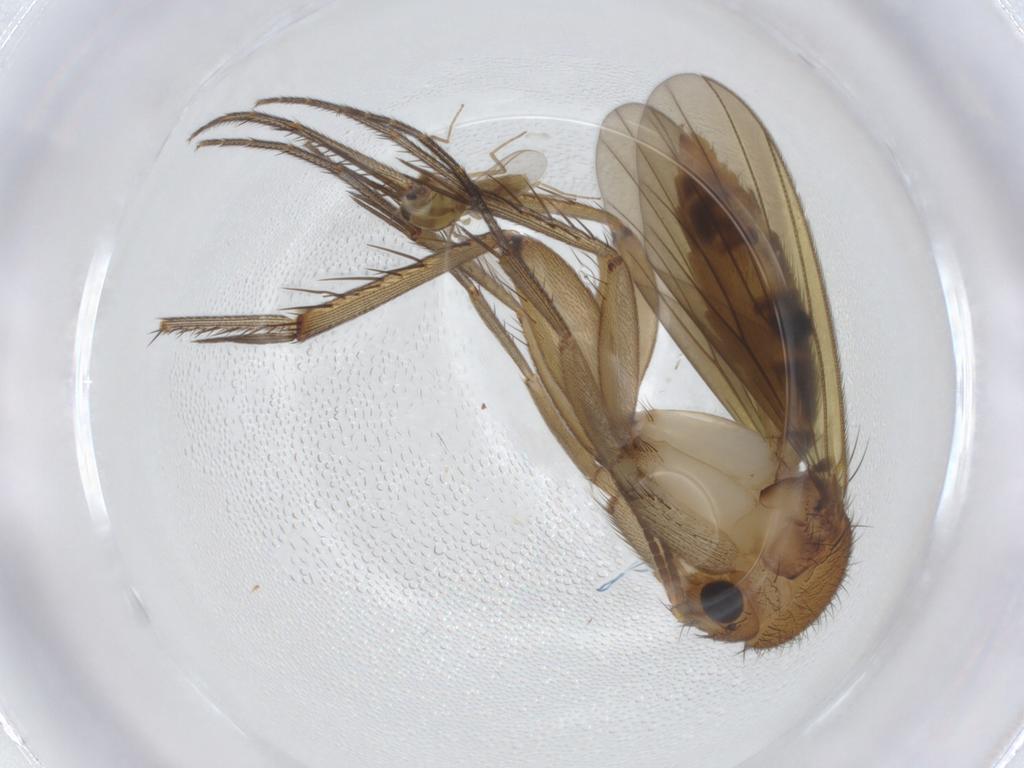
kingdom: Animalia
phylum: Arthropoda
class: Insecta
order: Diptera
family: Mycetophilidae
